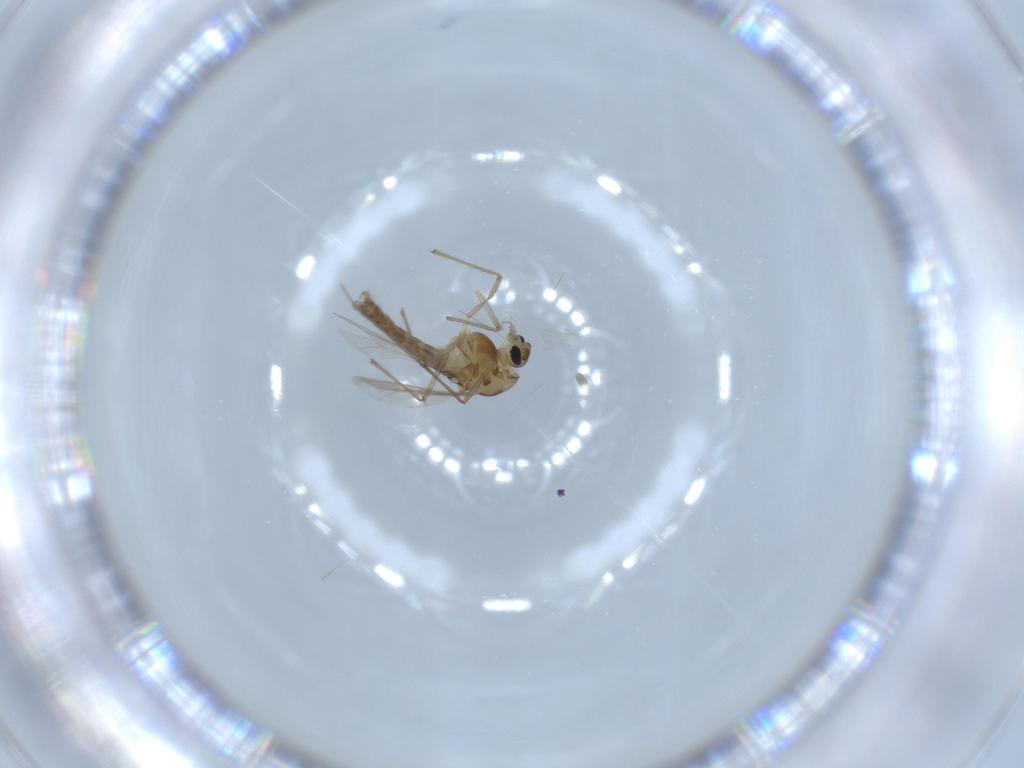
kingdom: Animalia
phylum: Arthropoda
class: Insecta
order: Diptera
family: Chironomidae
